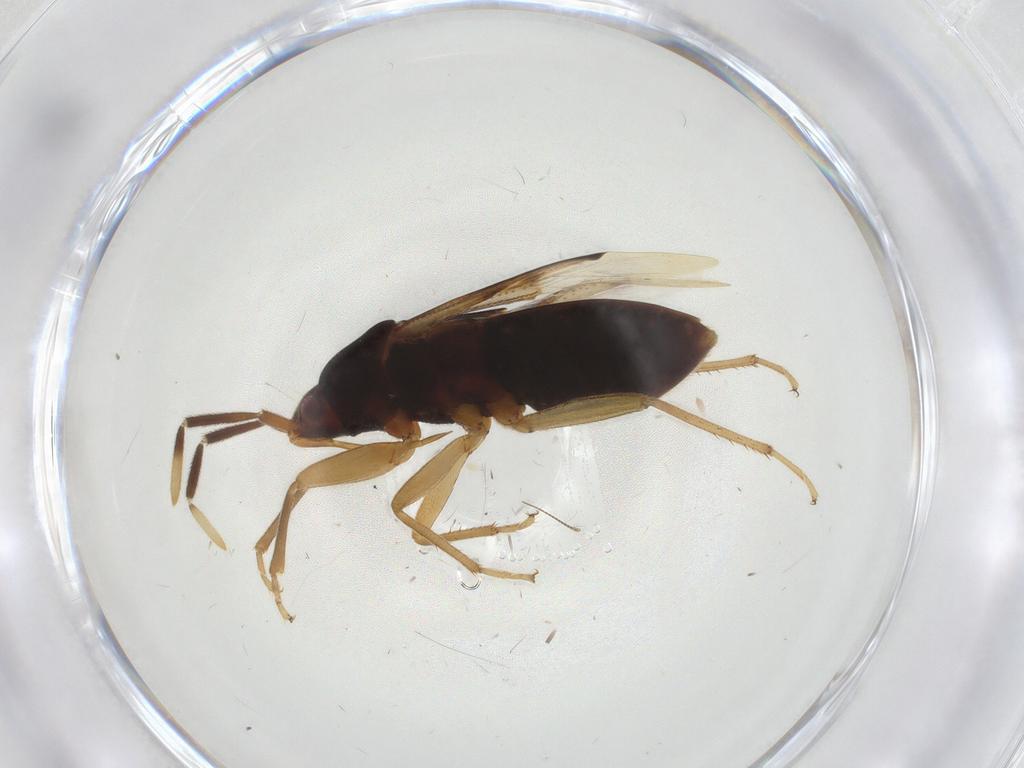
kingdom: Animalia
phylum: Arthropoda
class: Insecta
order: Hemiptera
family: Rhyparochromidae
